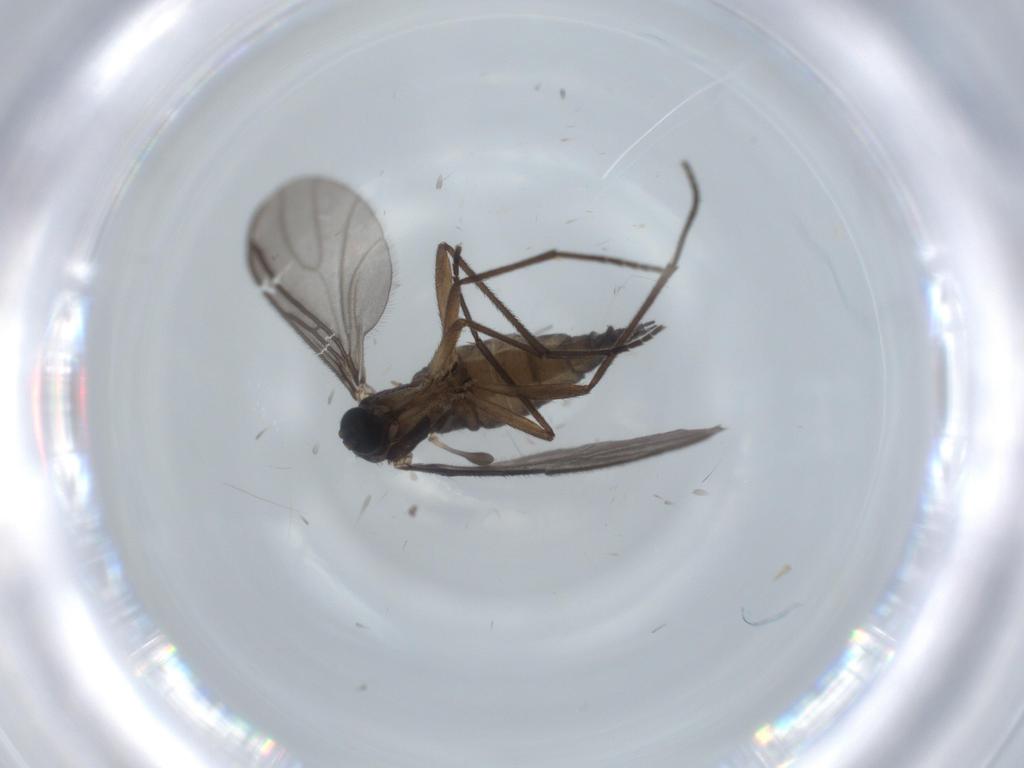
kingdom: Animalia
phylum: Arthropoda
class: Insecta
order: Diptera
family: Sciaridae
